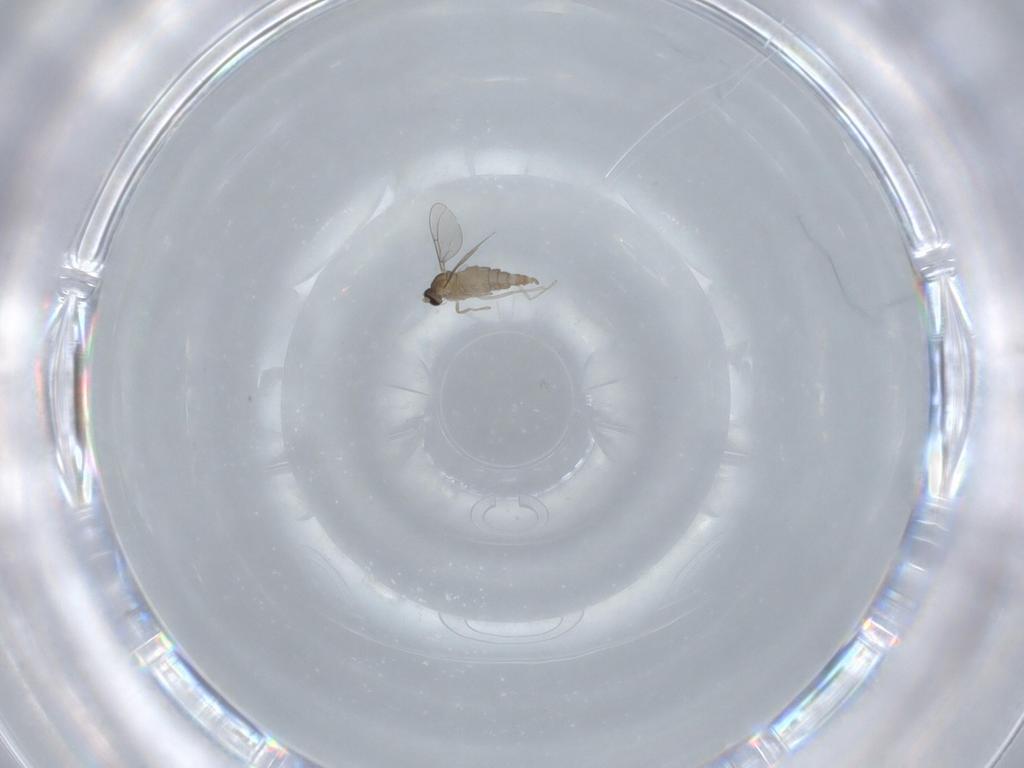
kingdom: Animalia
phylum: Arthropoda
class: Insecta
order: Diptera
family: Cecidomyiidae
